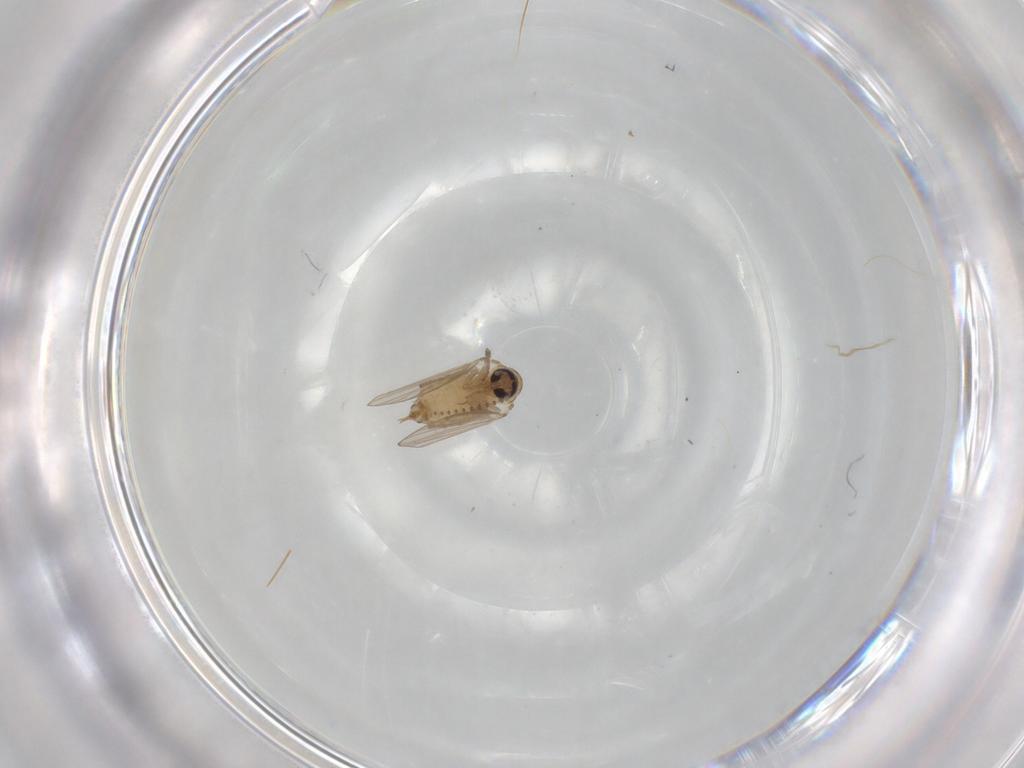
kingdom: Animalia
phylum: Arthropoda
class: Insecta
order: Diptera
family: Psychodidae
